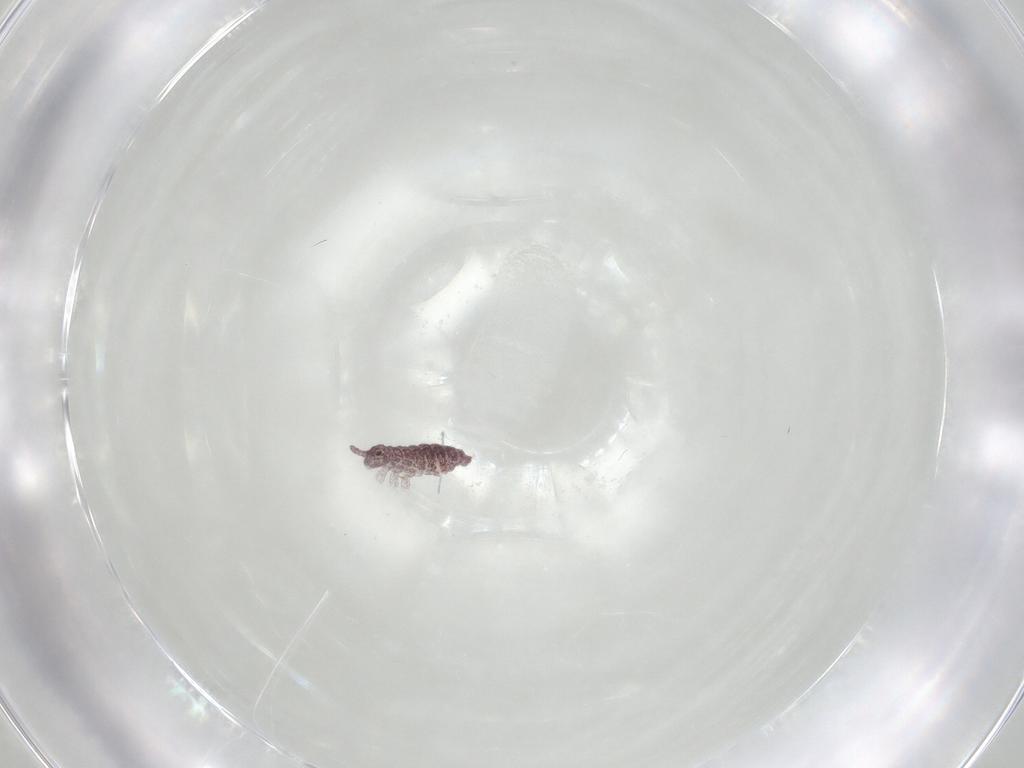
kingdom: Animalia
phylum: Arthropoda
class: Collembola
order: Poduromorpha
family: Hypogastruridae
